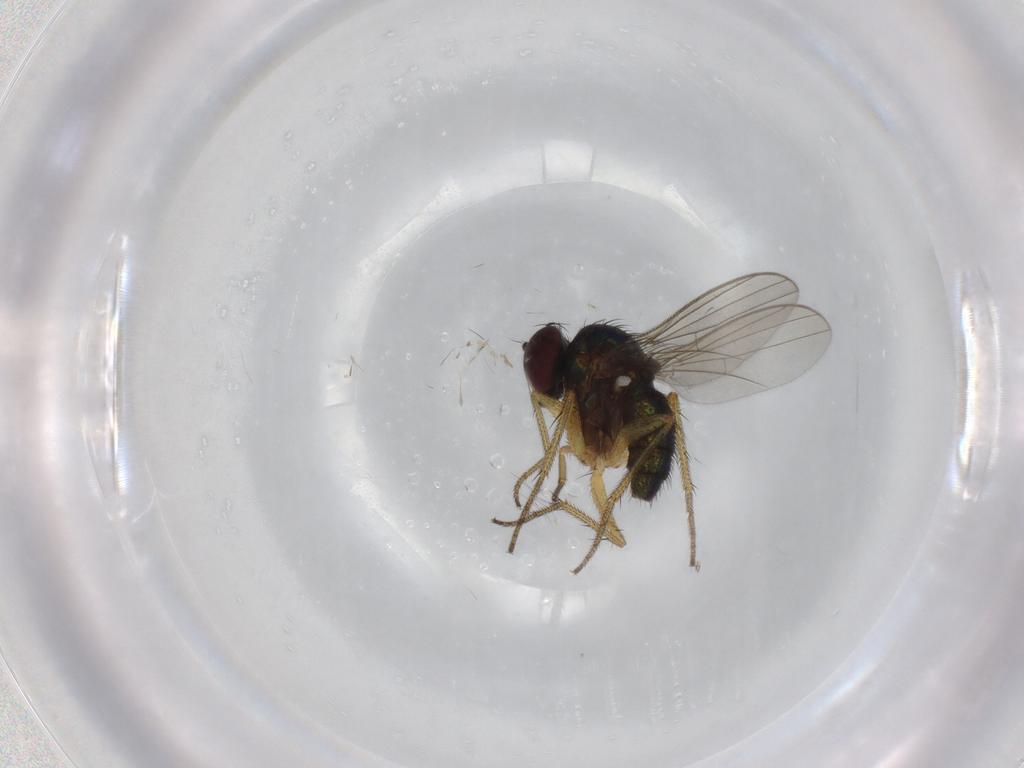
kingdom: Animalia
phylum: Arthropoda
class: Insecta
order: Diptera
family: Dolichopodidae
